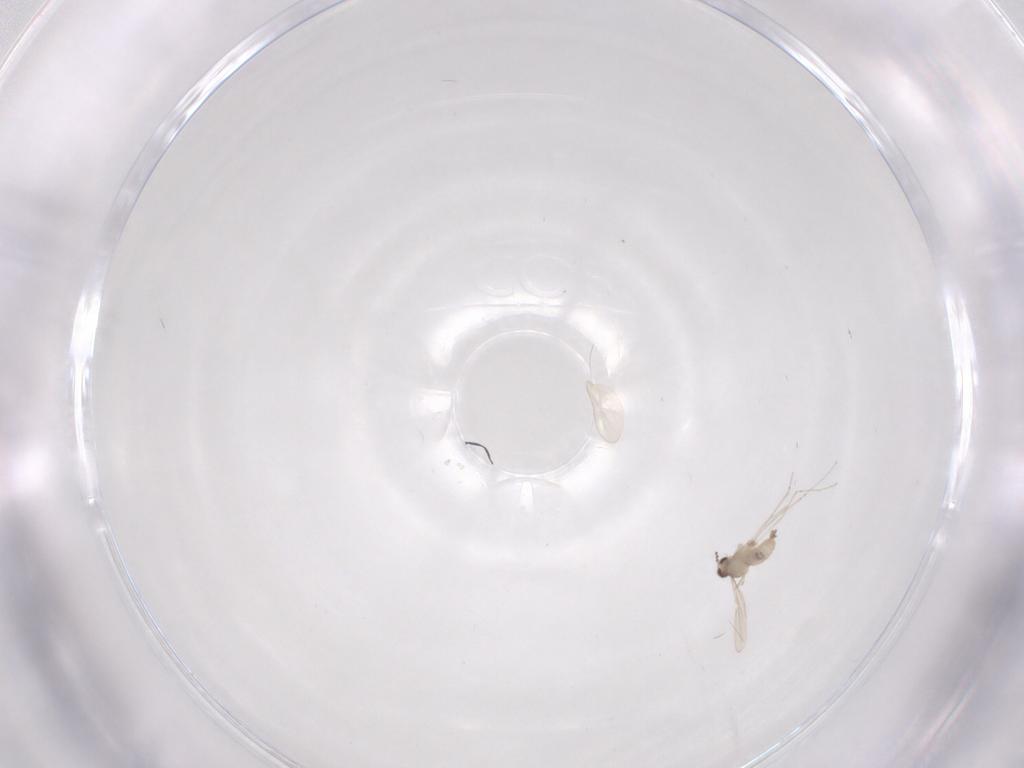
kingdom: Animalia
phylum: Arthropoda
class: Insecta
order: Diptera
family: Cecidomyiidae
